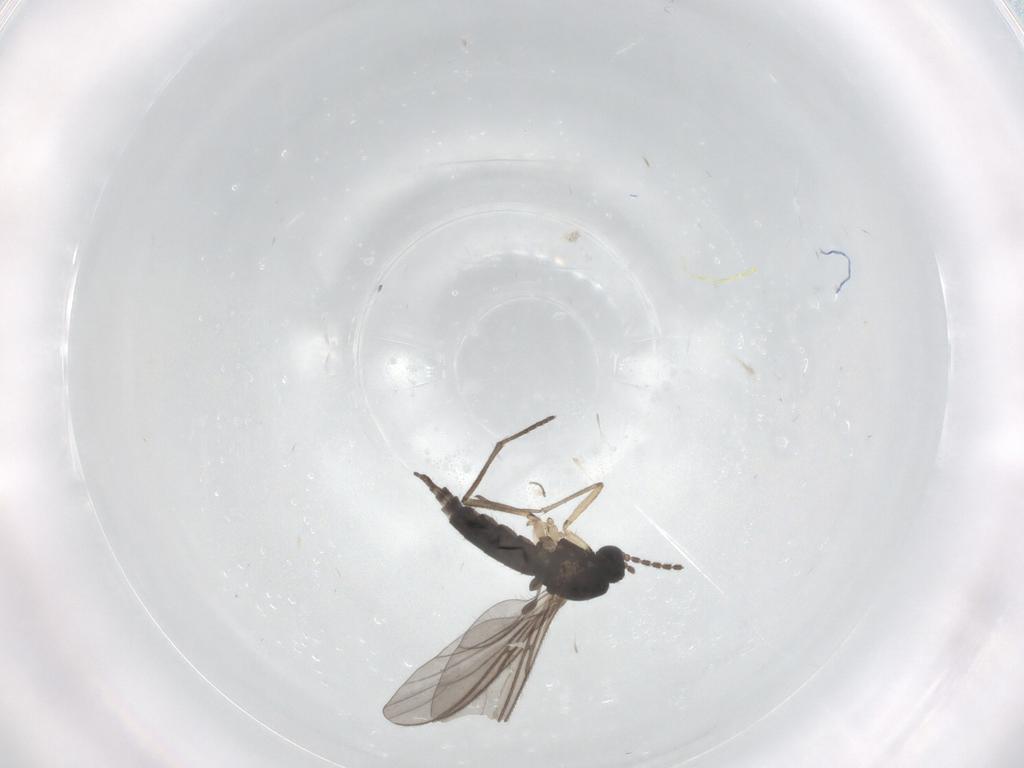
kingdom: Animalia
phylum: Arthropoda
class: Insecta
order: Diptera
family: Sciaridae
